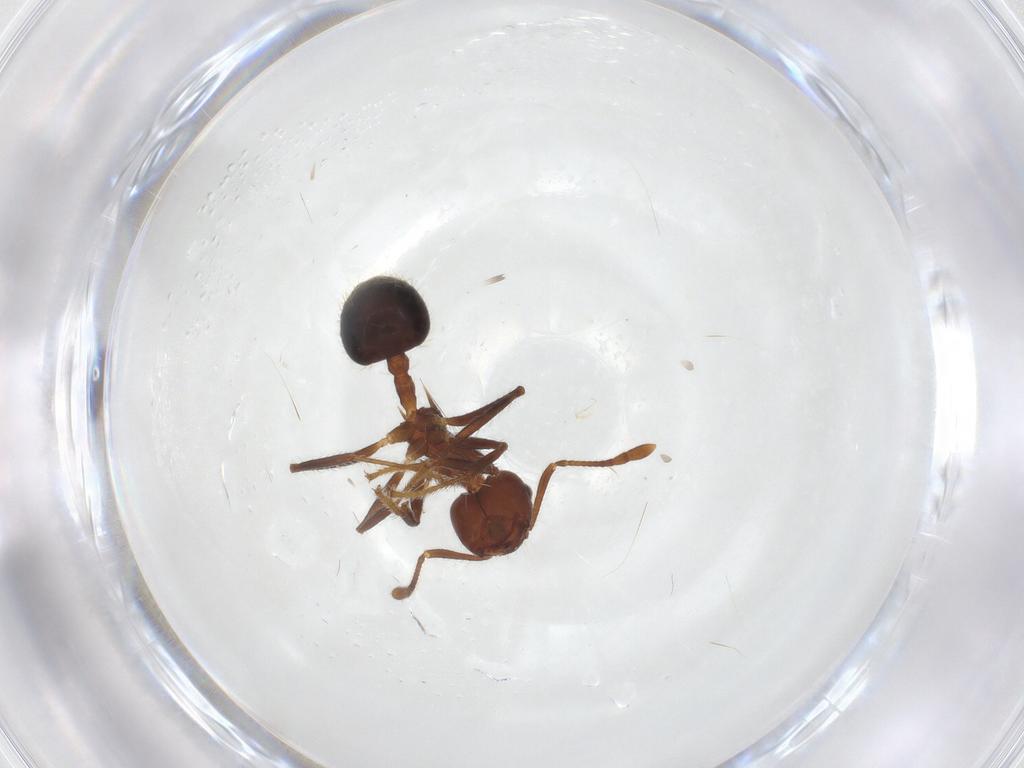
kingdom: Animalia
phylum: Arthropoda
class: Insecta
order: Hymenoptera
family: Formicidae
